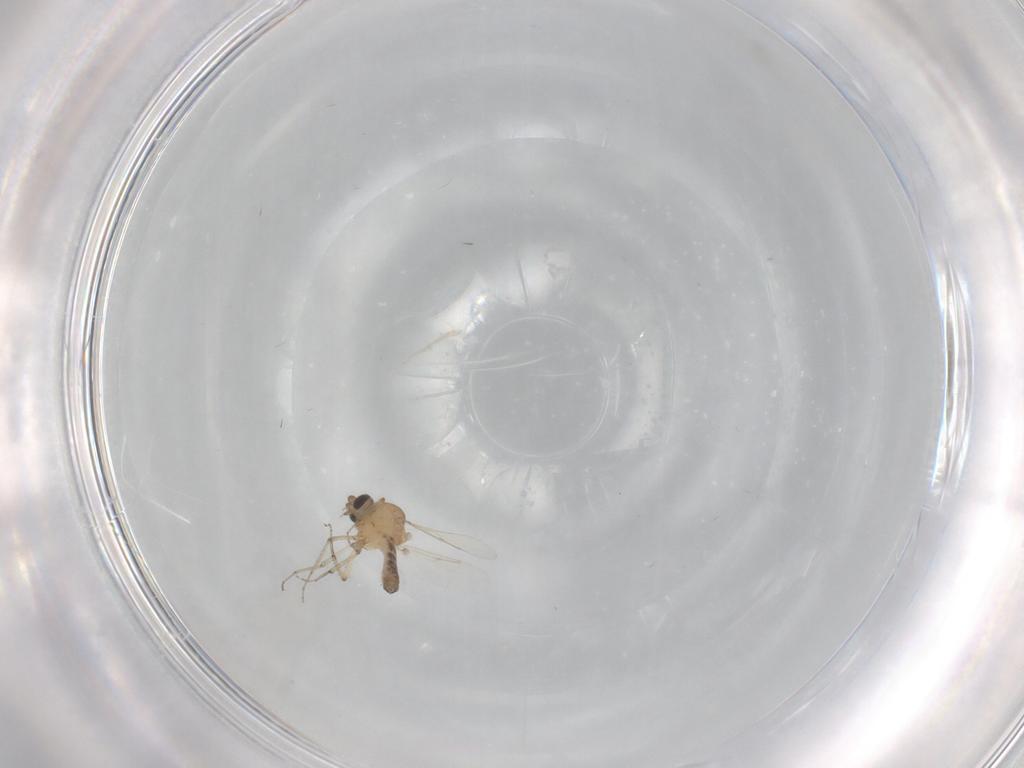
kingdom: Animalia
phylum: Arthropoda
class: Insecta
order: Diptera
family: Ceratopogonidae
